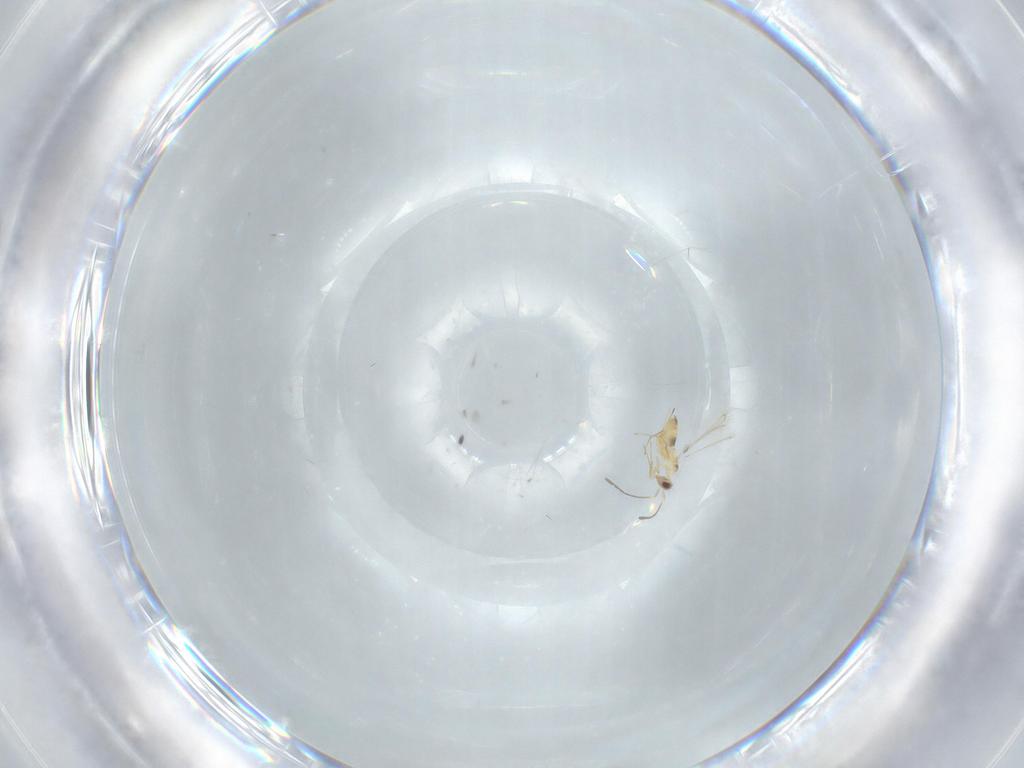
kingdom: Animalia
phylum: Arthropoda
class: Insecta
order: Hymenoptera
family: Mymaridae
